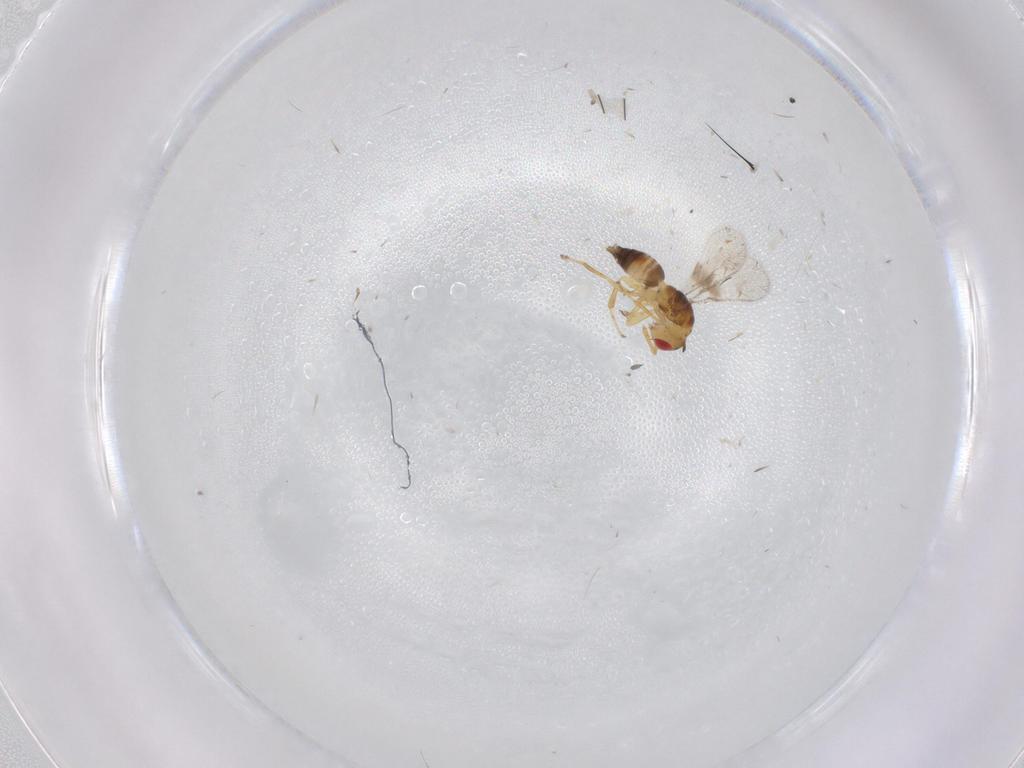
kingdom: Animalia
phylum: Arthropoda
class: Insecta
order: Hymenoptera
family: Torymidae
